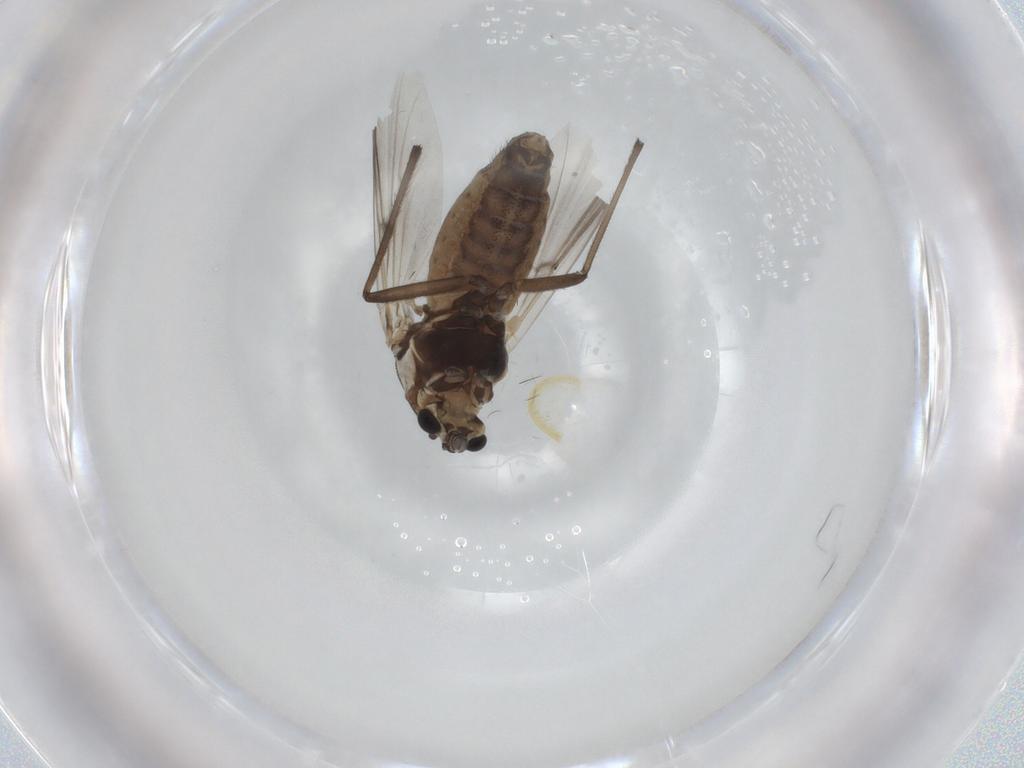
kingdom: Animalia
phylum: Arthropoda
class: Insecta
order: Diptera
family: Chironomidae
